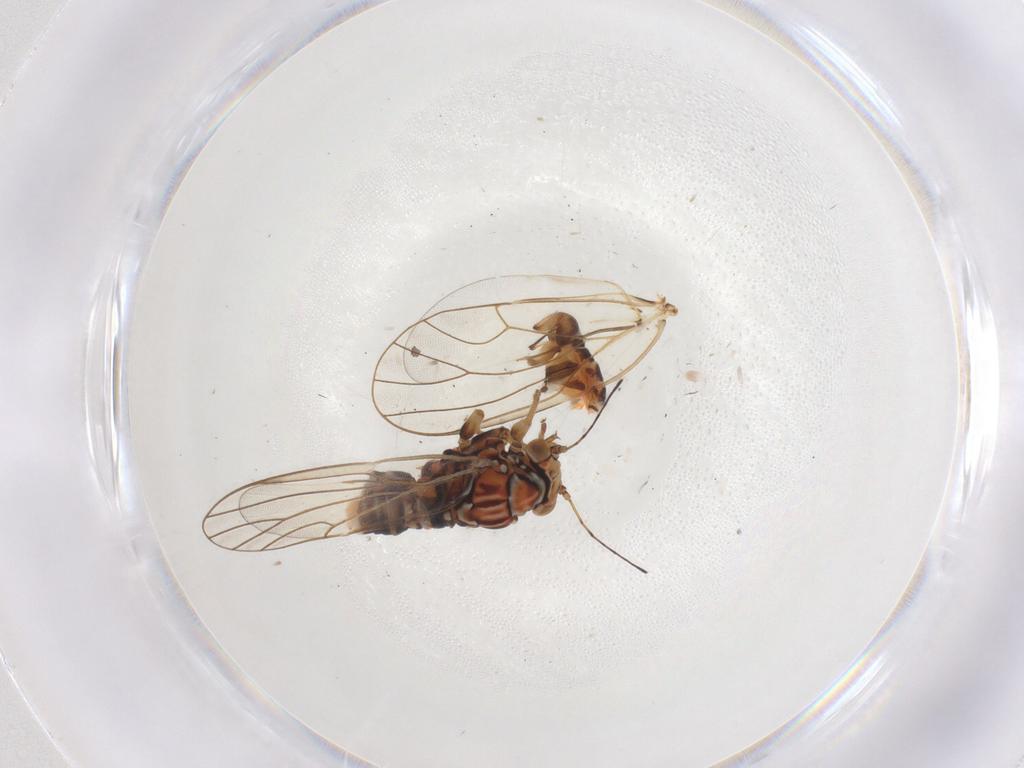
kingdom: Animalia
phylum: Arthropoda
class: Insecta
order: Hemiptera
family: Psyllidae
